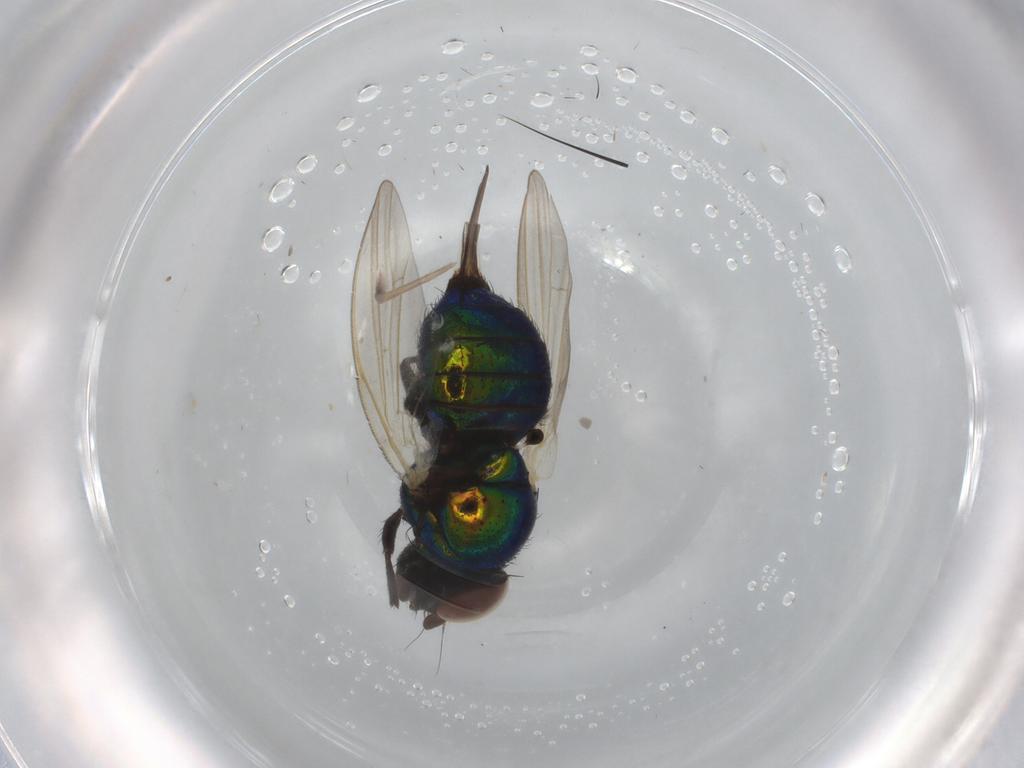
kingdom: Animalia
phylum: Arthropoda
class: Insecta
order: Diptera
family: Lonchaeidae
